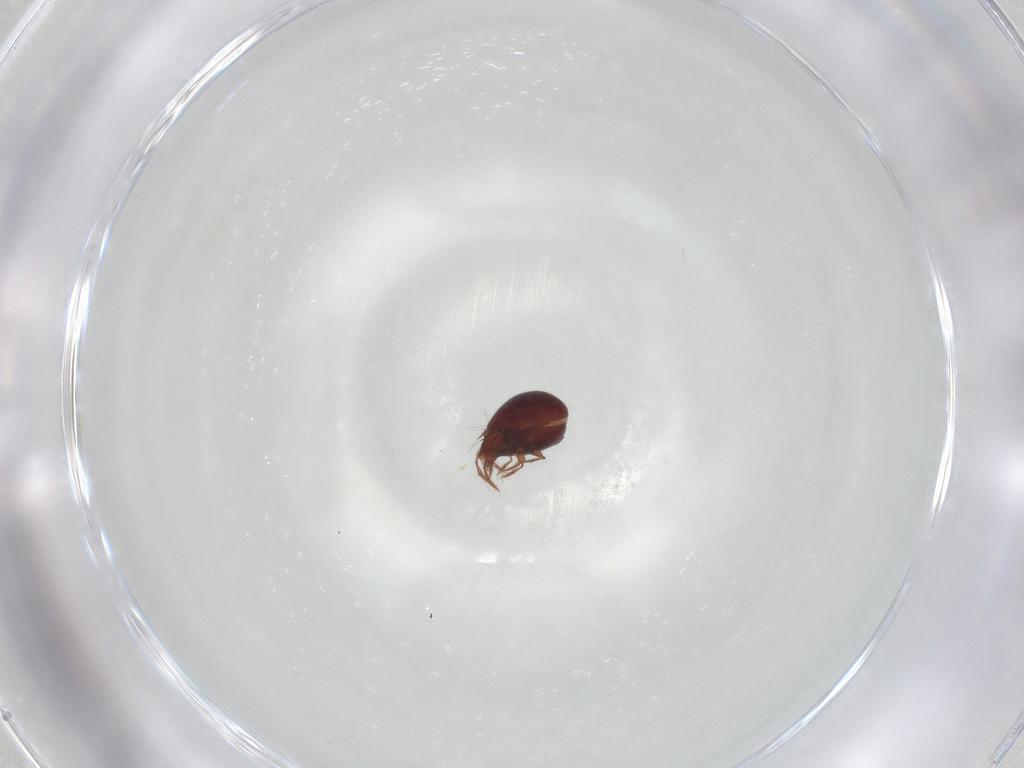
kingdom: Animalia
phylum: Arthropoda
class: Arachnida
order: Sarcoptiformes
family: Ceratozetidae
